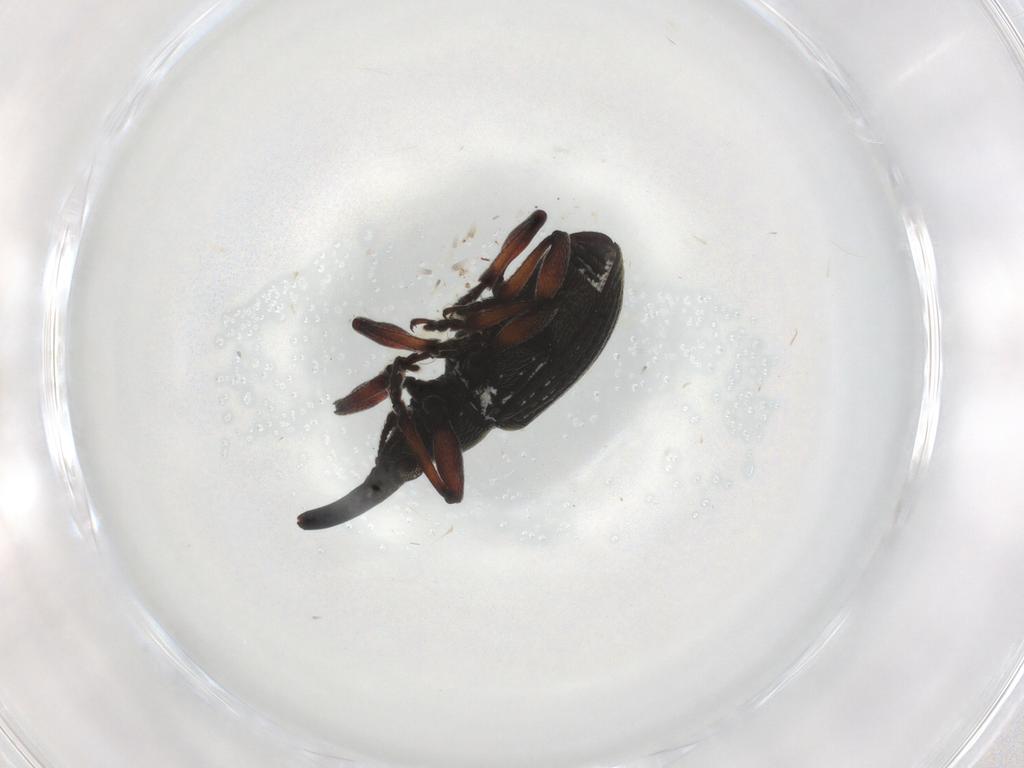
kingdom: Animalia
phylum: Arthropoda
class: Insecta
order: Coleoptera
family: Brentidae
